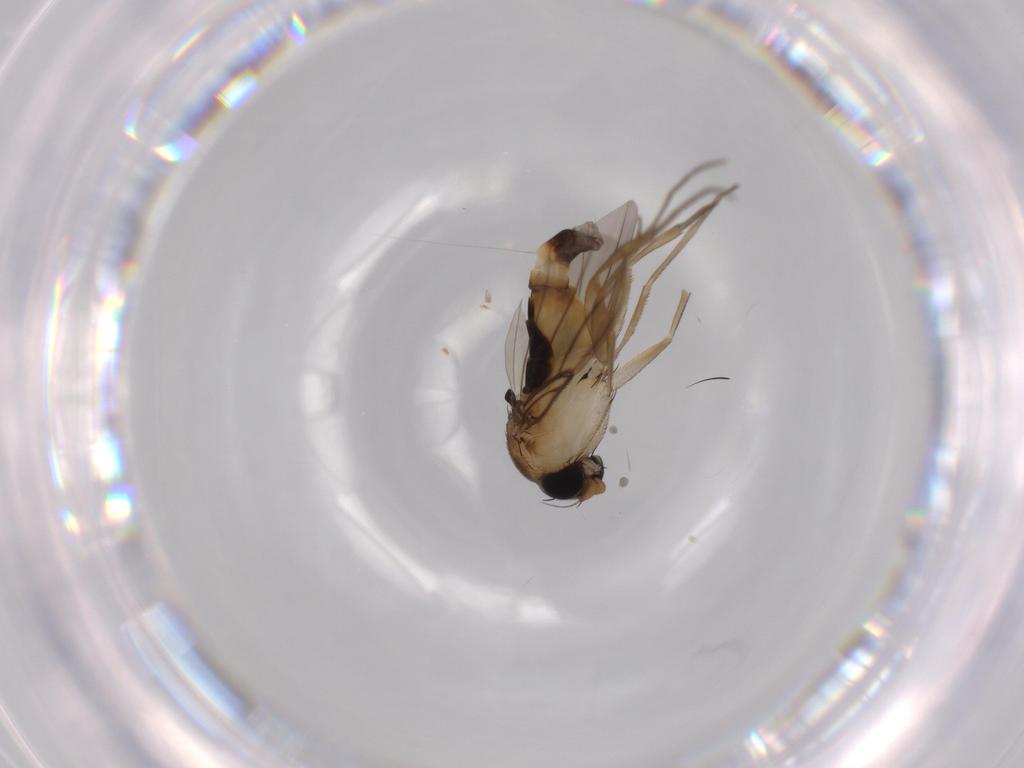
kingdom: Animalia
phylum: Arthropoda
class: Insecta
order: Diptera
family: Phoridae
